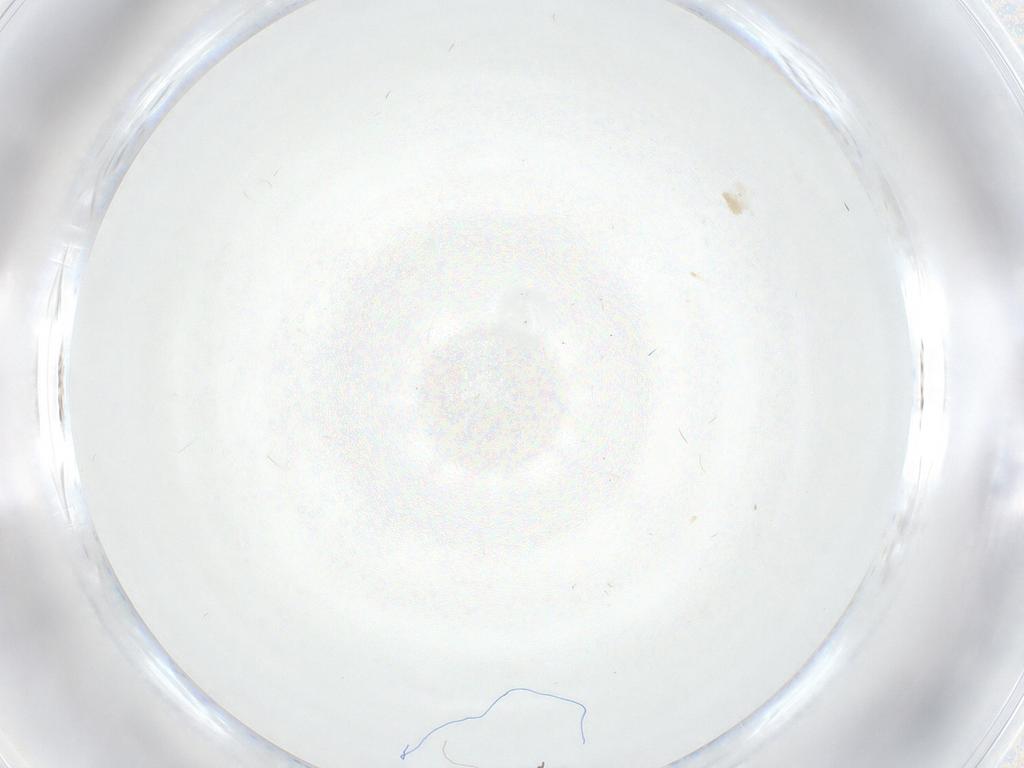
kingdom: Animalia
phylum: Arthropoda
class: Insecta
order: Diptera
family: Cecidomyiidae
